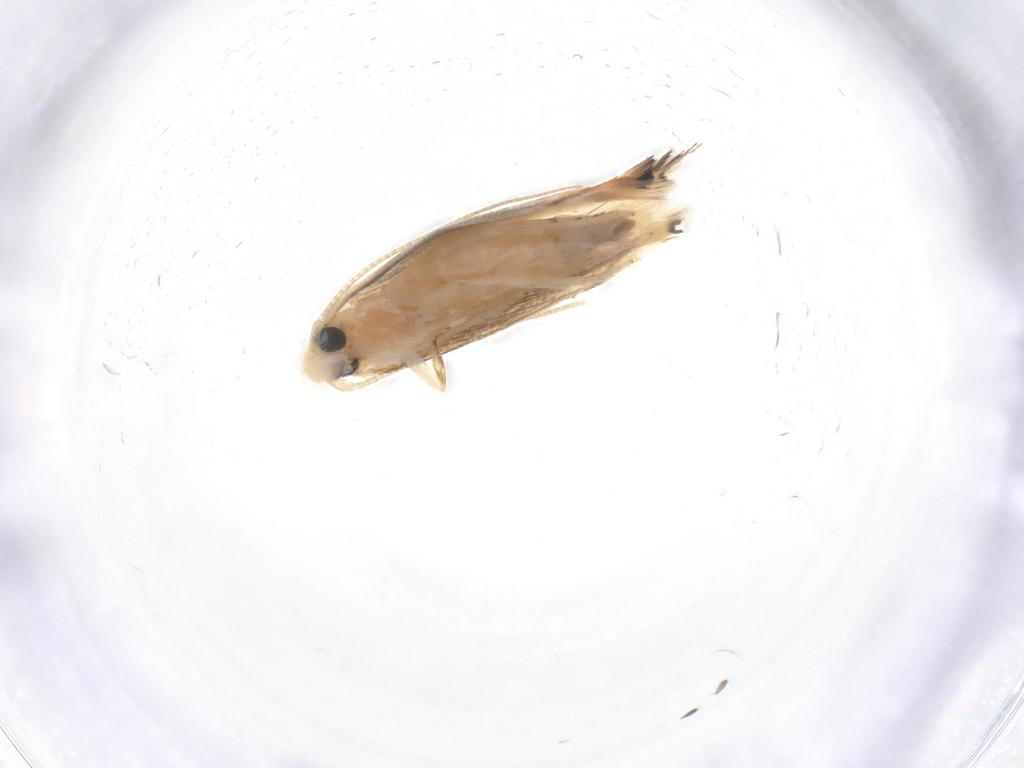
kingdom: Animalia
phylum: Arthropoda
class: Insecta
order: Lepidoptera
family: Noctuidae
